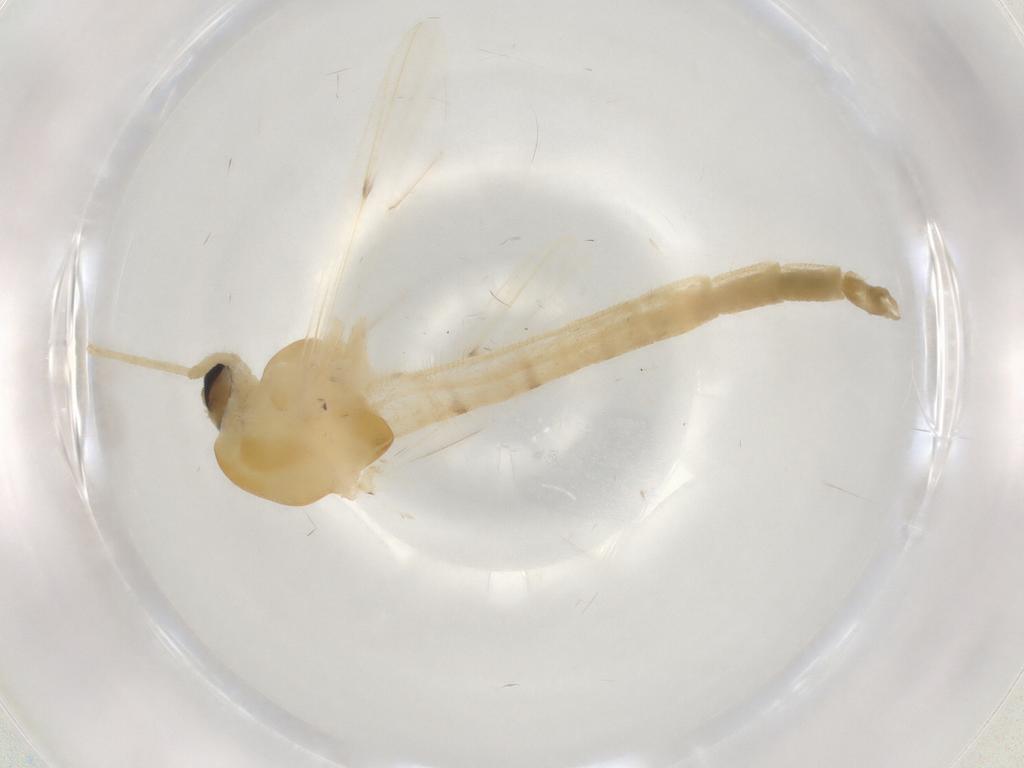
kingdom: Animalia
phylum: Arthropoda
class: Insecta
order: Diptera
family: Chironomidae
